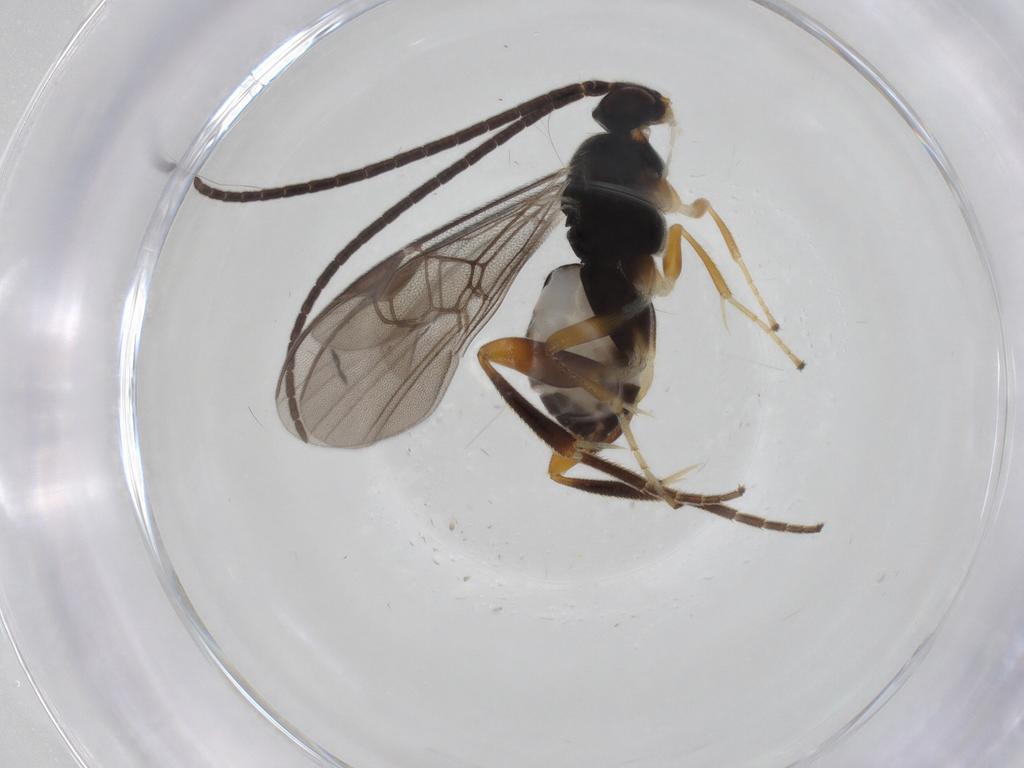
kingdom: Animalia
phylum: Arthropoda
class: Insecta
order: Hymenoptera
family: Braconidae
